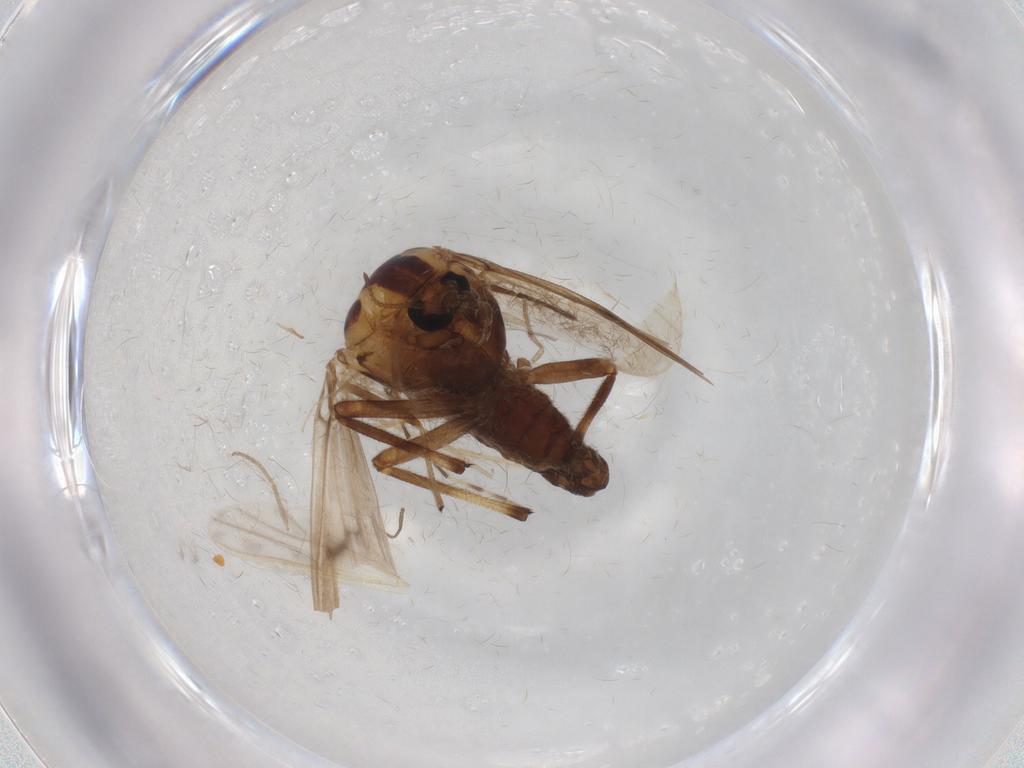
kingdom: Animalia
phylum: Arthropoda
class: Insecta
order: Diptera
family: Chironomidae
